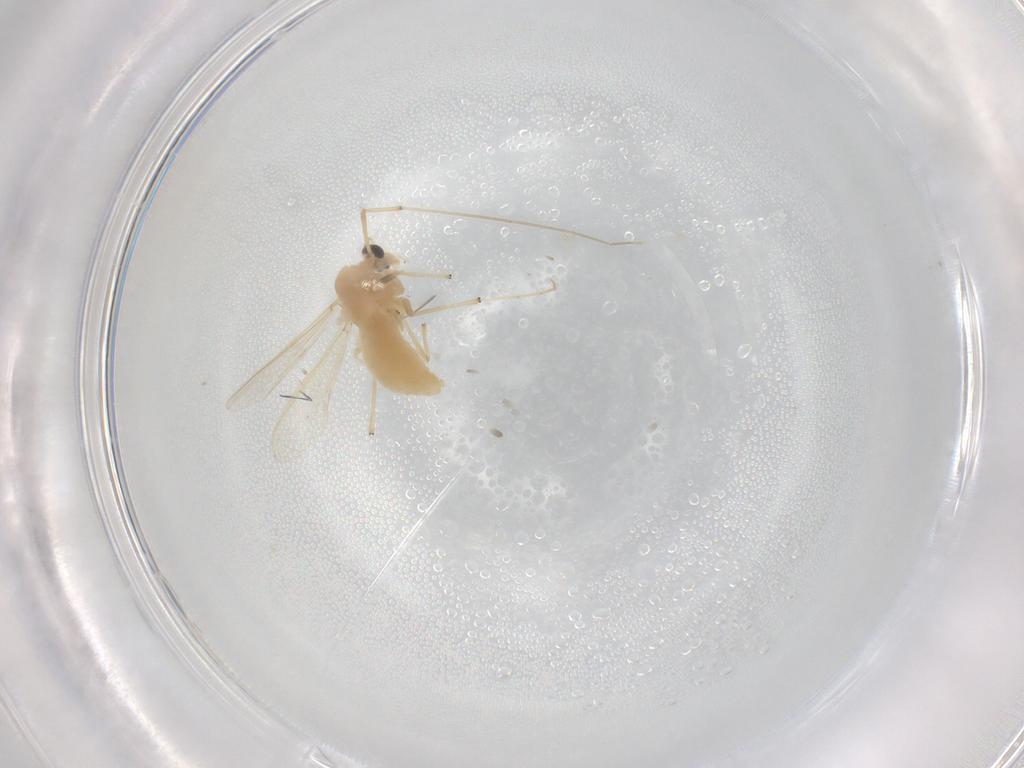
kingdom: Animalia
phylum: Arthropoda
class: Insecta
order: Diptera
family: Chironomidae
